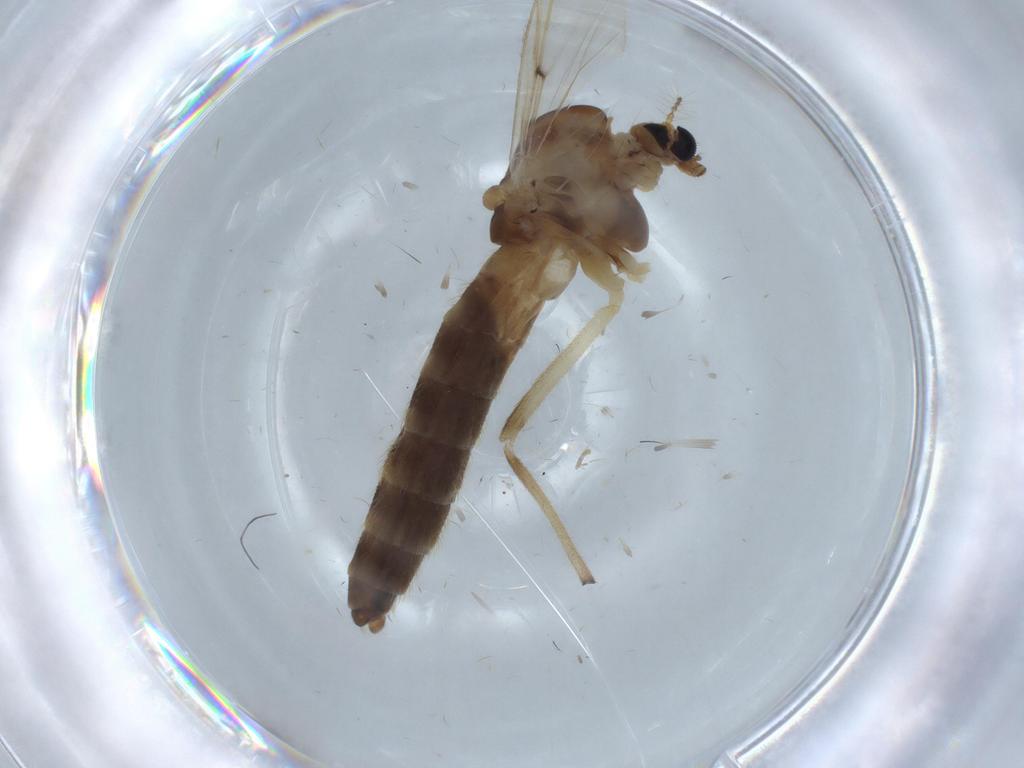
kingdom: Animalia
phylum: Arthropoda
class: Insecta
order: Diptera
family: Chironomidae
